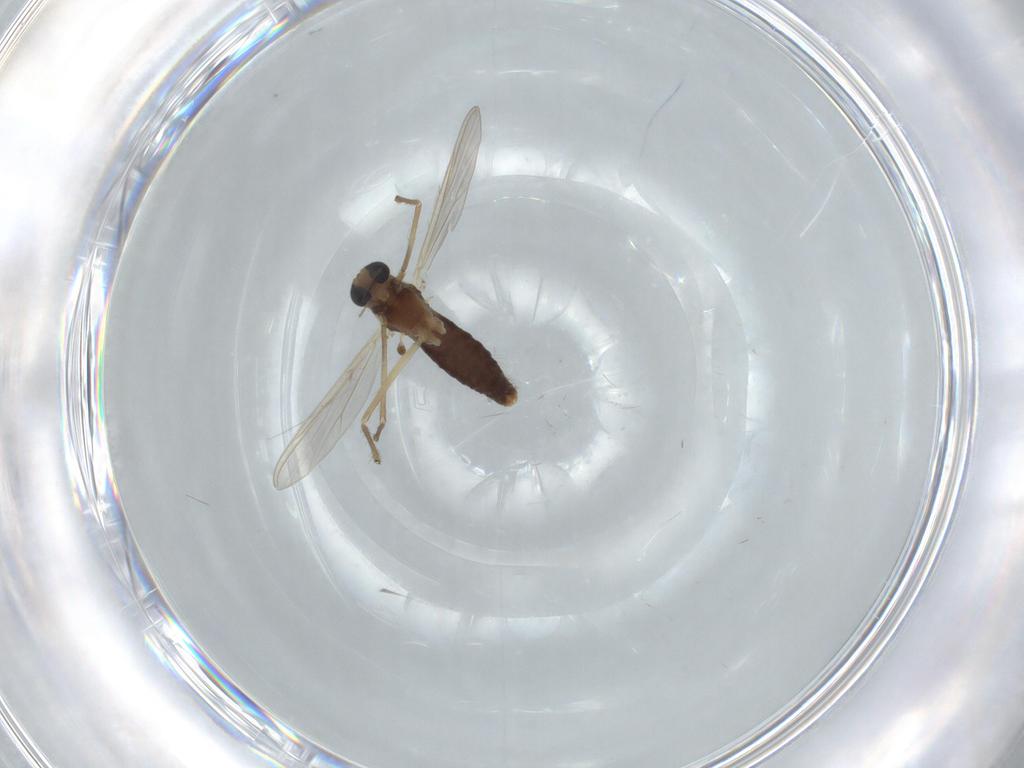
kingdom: Animalia
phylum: Arthropoda
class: Insecta
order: Diptera
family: Chironomidae
